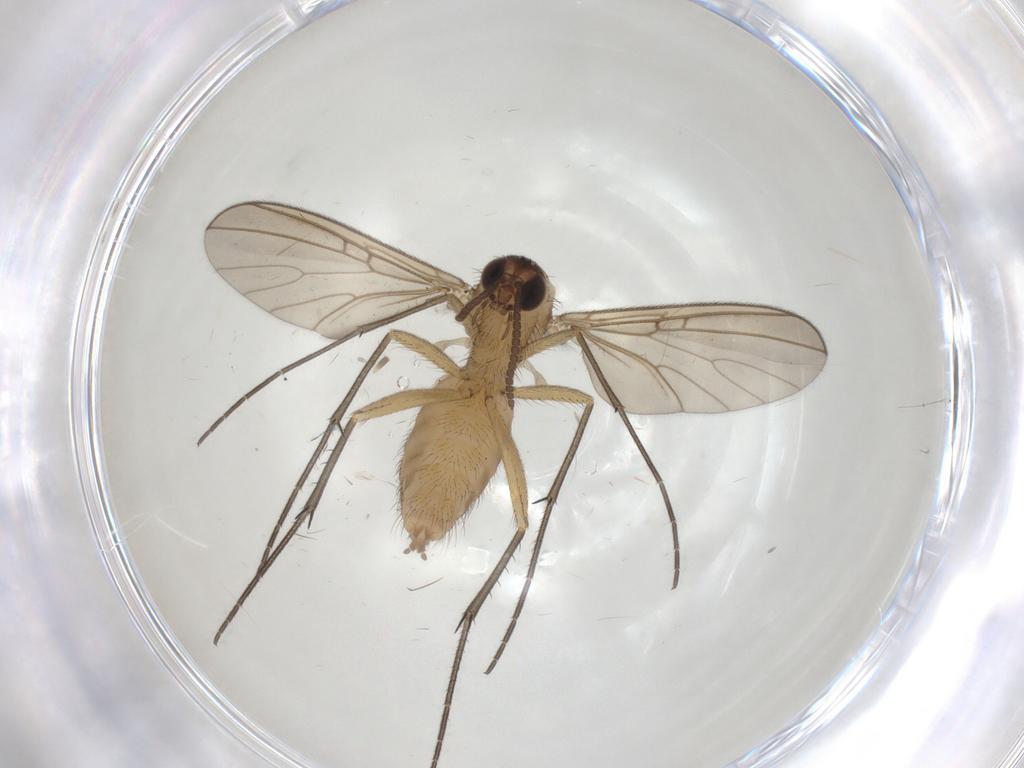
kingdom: Animalia
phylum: Arthropoda
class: Insecta
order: Diptera
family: Mycetophilidae
